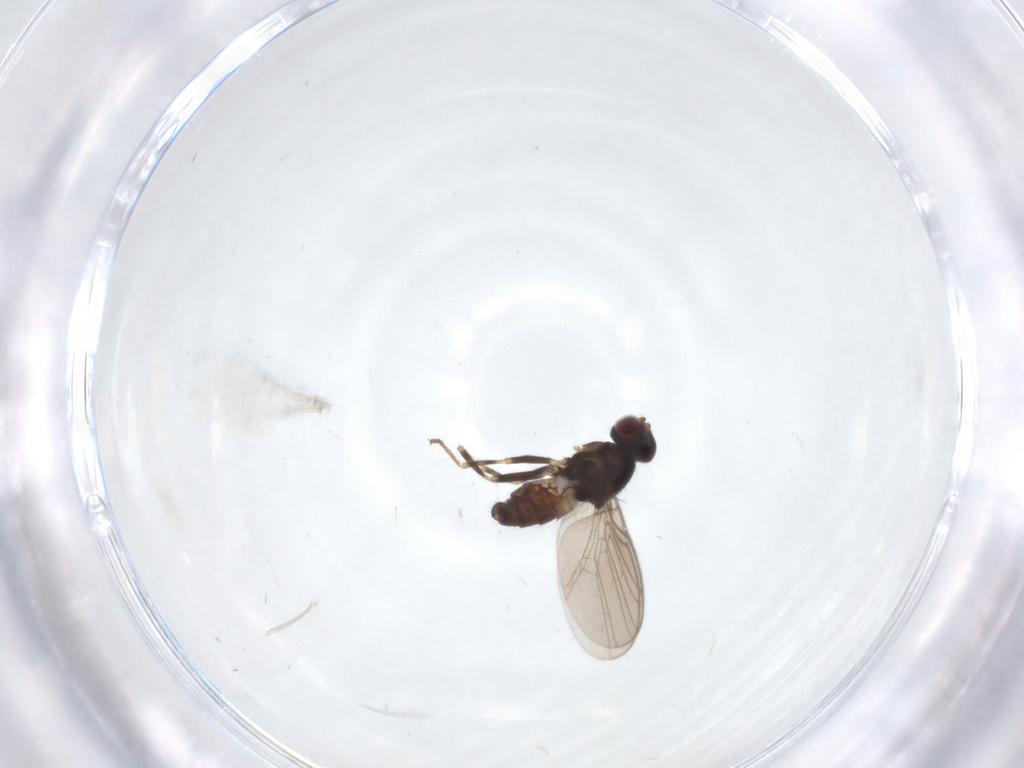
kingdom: Animalia
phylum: Arthropoda
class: Insecta
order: Diptera
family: Chloropidae
